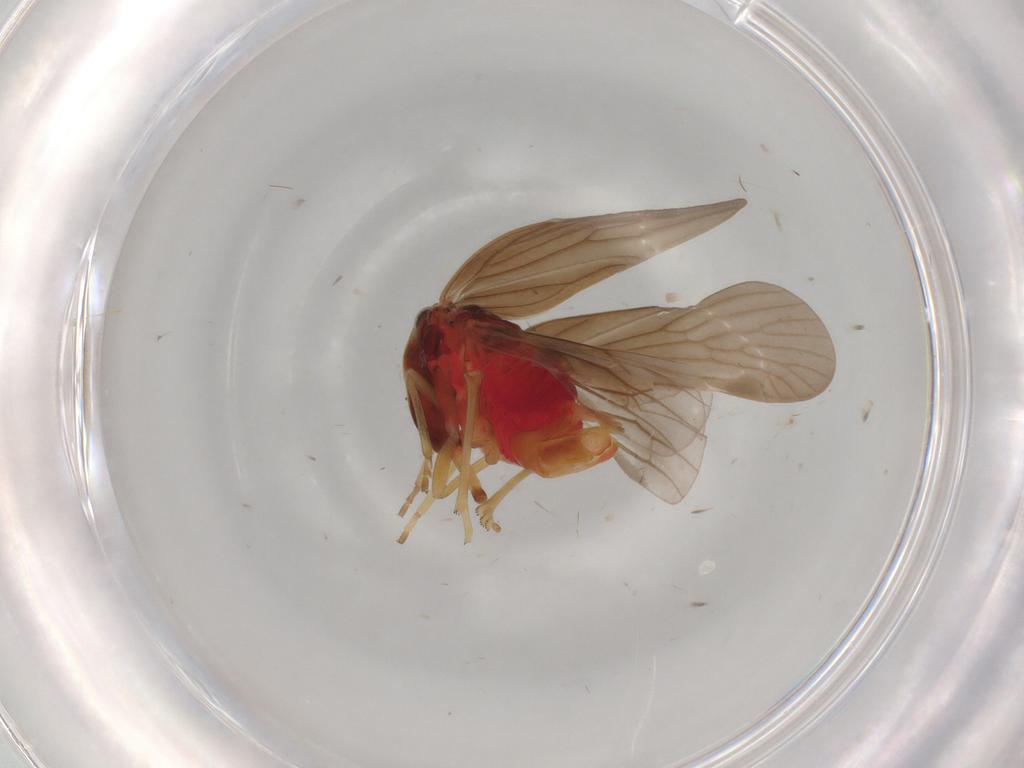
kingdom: Animalia
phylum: Arthropoda
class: Insecta
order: Hemiptera
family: Derbidae
